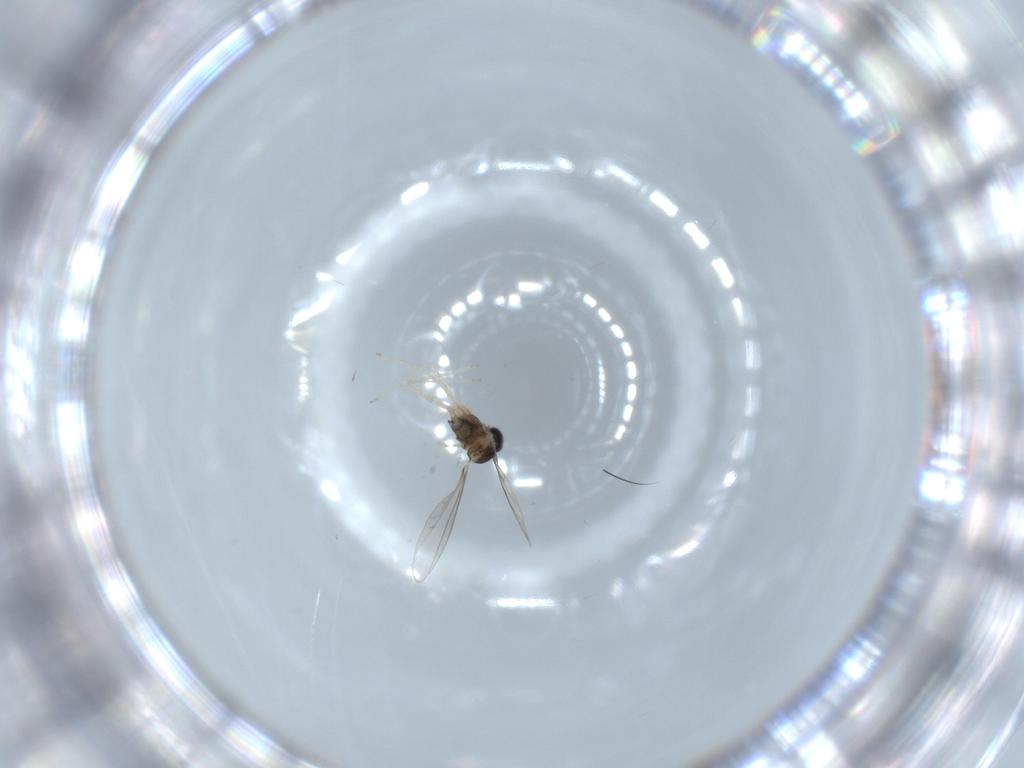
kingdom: Animalia
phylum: Arthropoda
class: Insecta
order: Diptera
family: Cecidomyiidae
